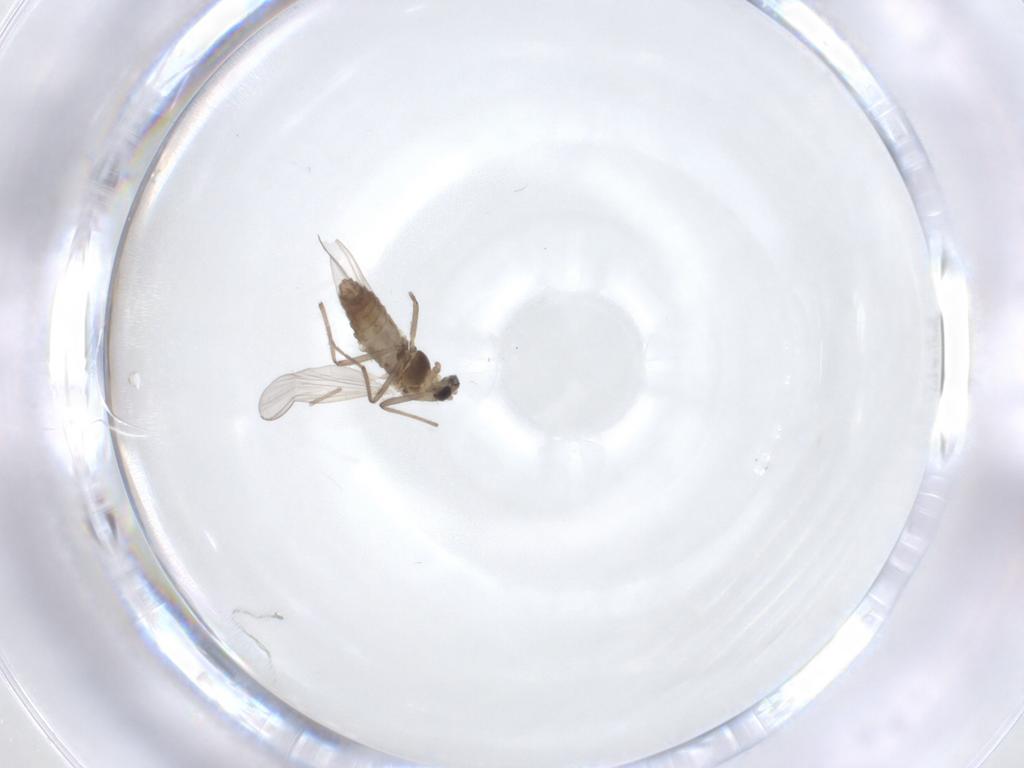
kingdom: Animalia
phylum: Arthropoda
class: Insecta
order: Diptera
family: Chironomidae
